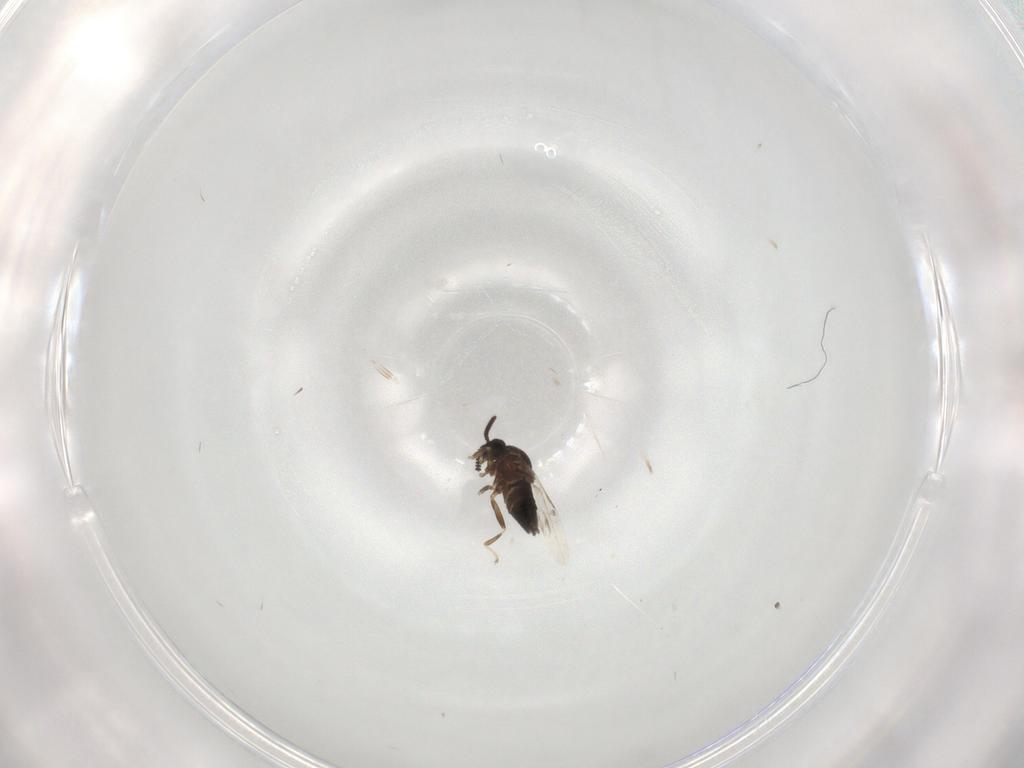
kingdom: Animalia
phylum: Arthropoda
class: Insecta
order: Diptera
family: Scatopsidae
